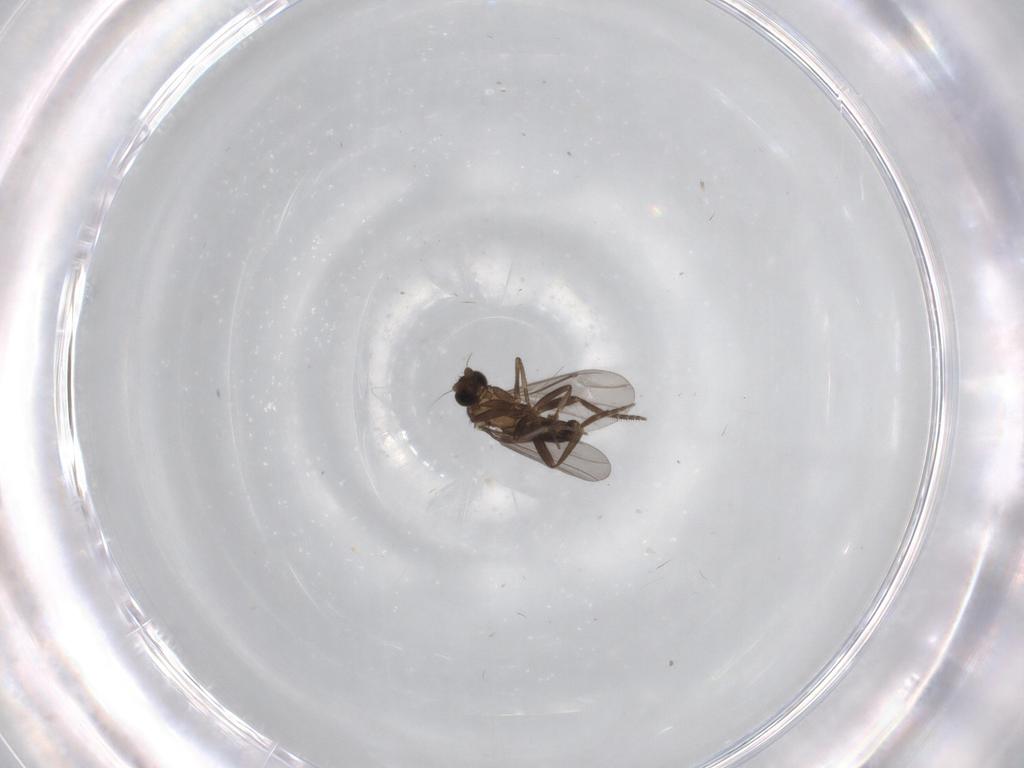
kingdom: Animalia
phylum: Arthropoda
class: Insecta
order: Diptera
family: Phoridae
